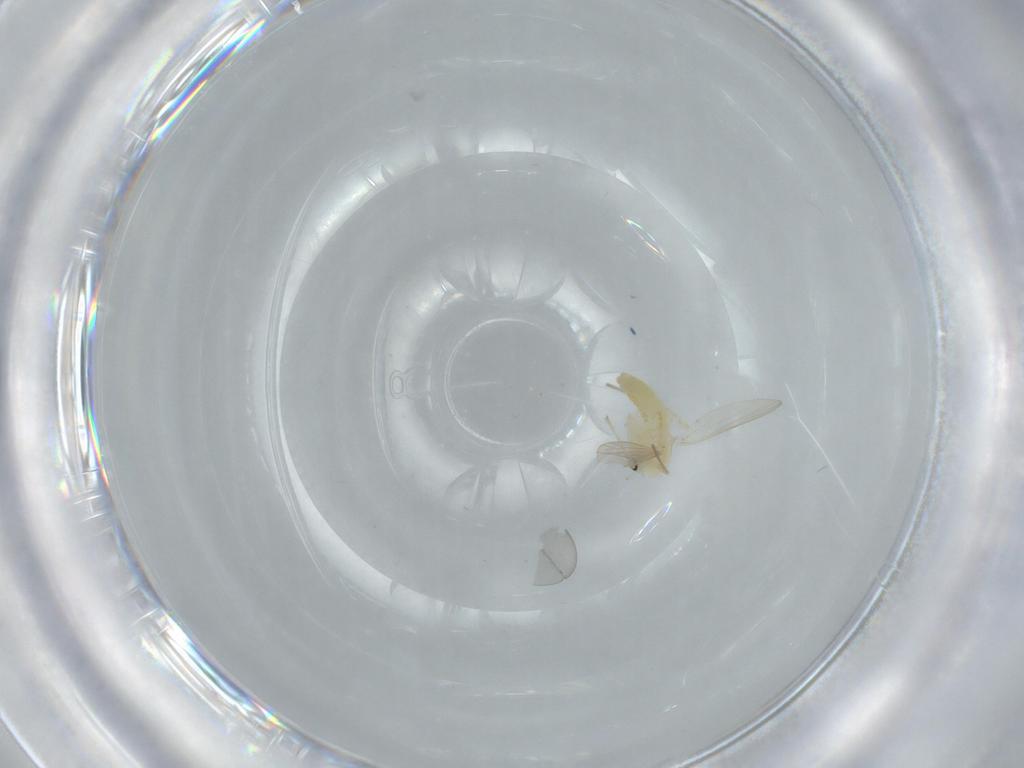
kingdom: Animalia
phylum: Arthropoda
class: Insecta
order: Diptera
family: Chironomidae
